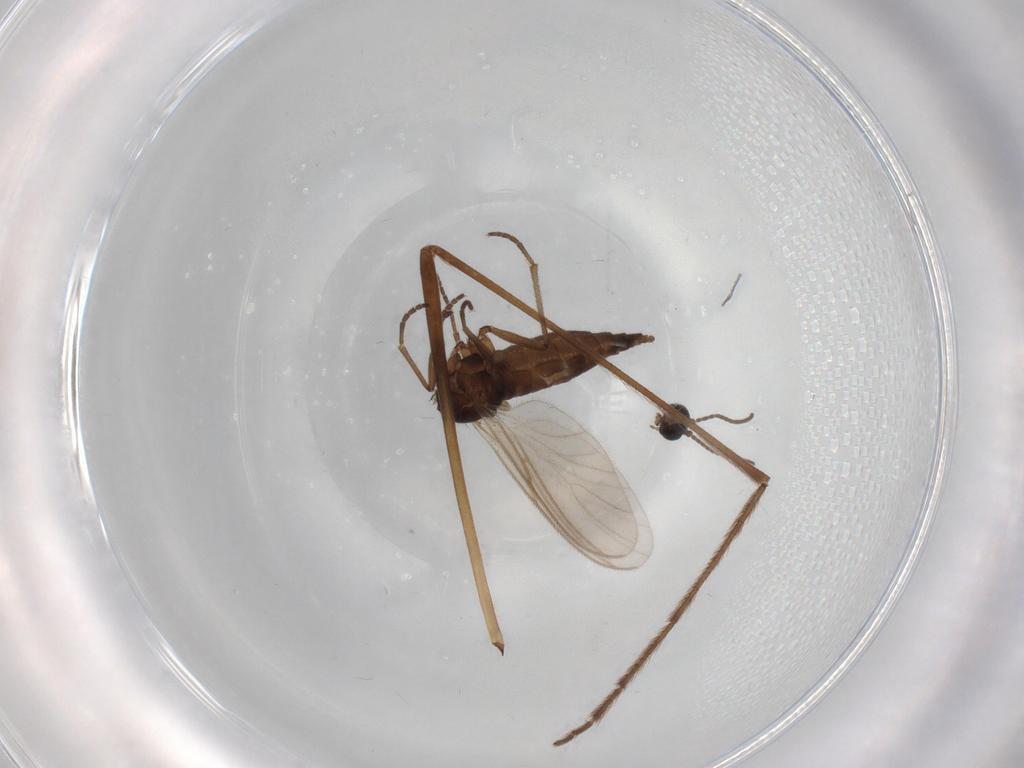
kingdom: Animalia
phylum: Arthropoda
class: Insecta
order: Diptera
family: Sciaridae
